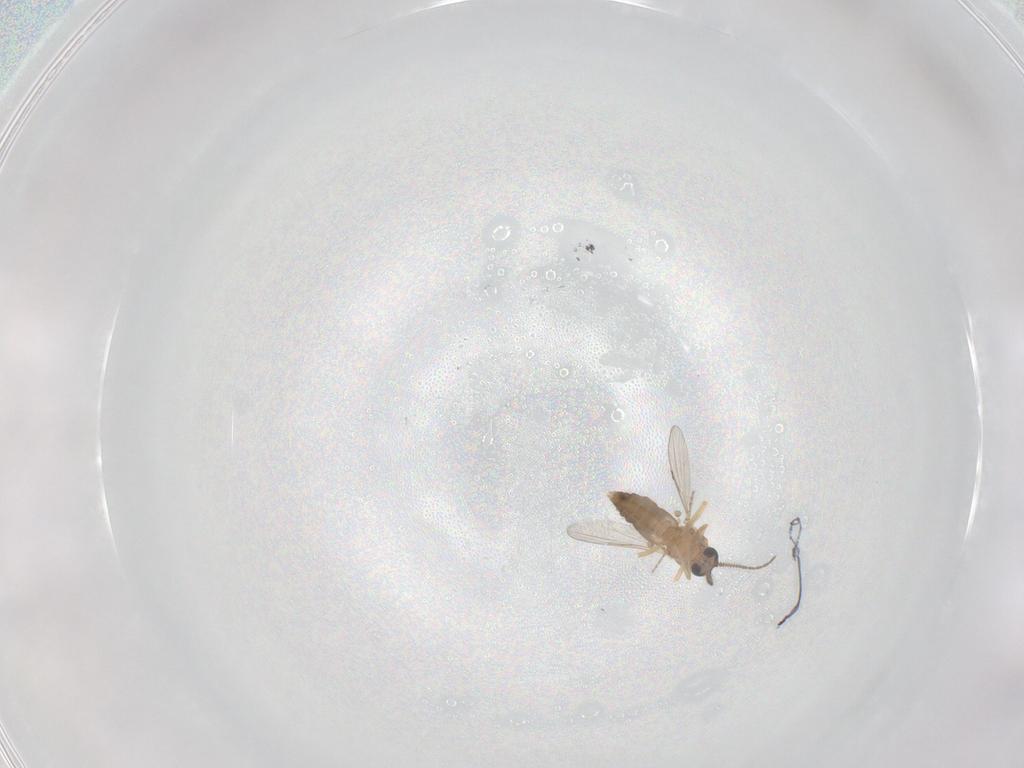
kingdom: Animalia
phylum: Arthropoda
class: Insecta
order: Diptera
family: Ceratopogonidae
